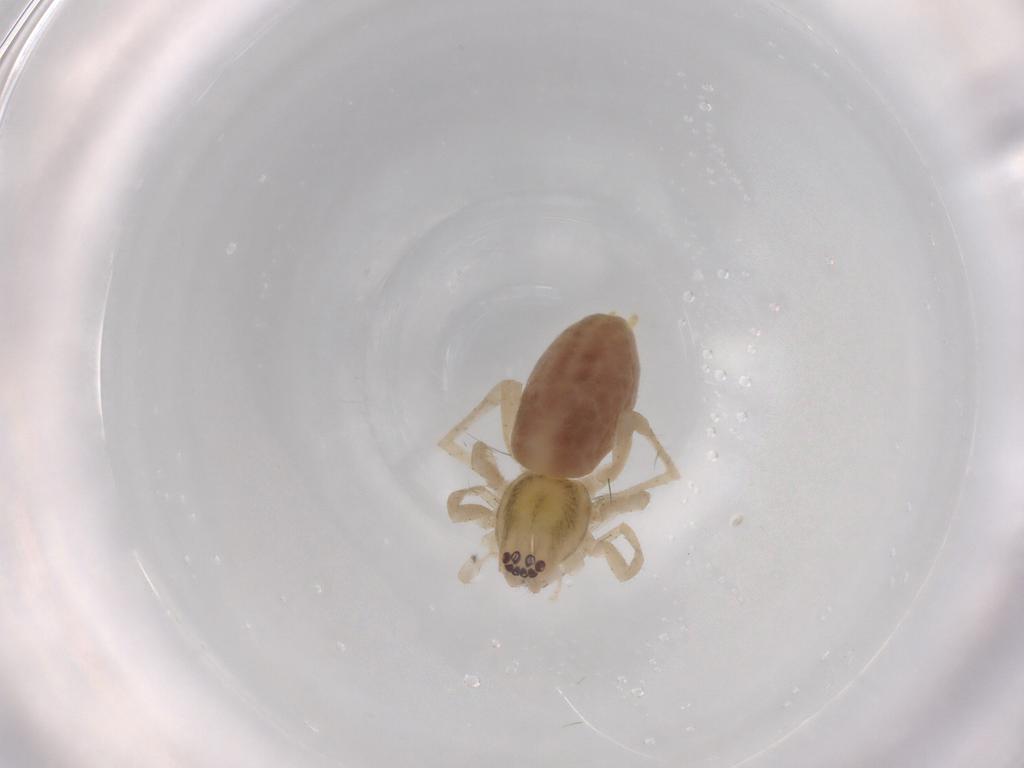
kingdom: Animalia
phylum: Arthropoda
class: Arachnida
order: Araneae
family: Anyphaenidae
